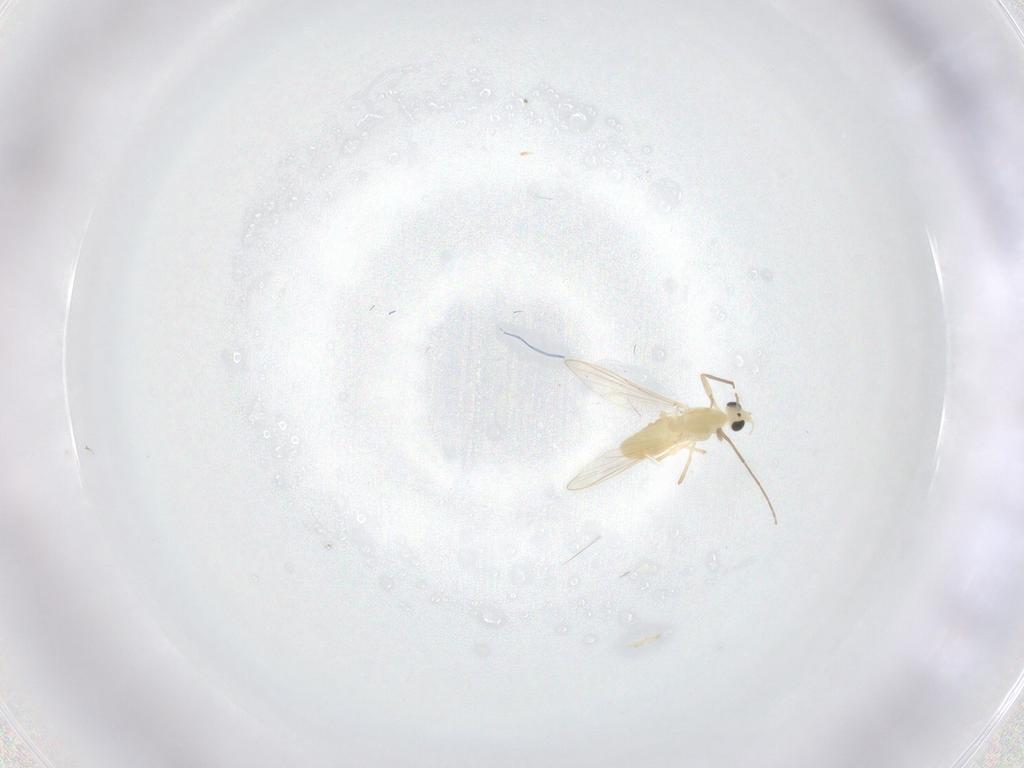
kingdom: Animalia
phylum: Arthropoda
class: Insecta
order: Diptera
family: Chironomidae
